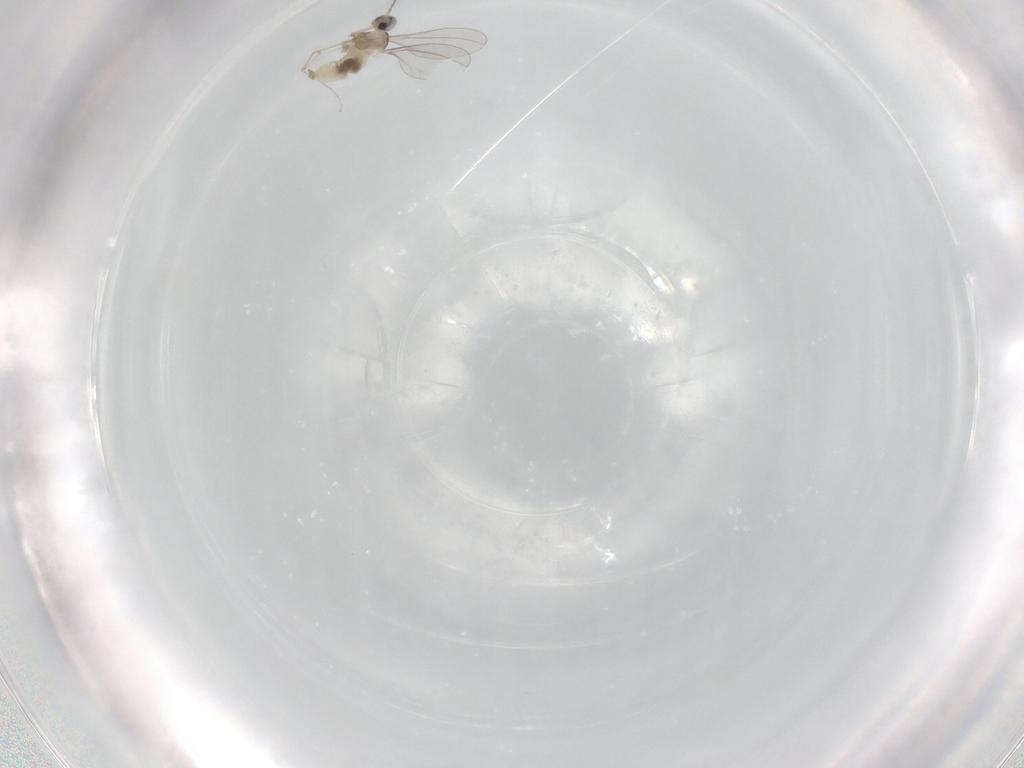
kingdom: Animalia
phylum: Arthropoda
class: Insecta
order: Diptera
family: Cecidomyiidae
